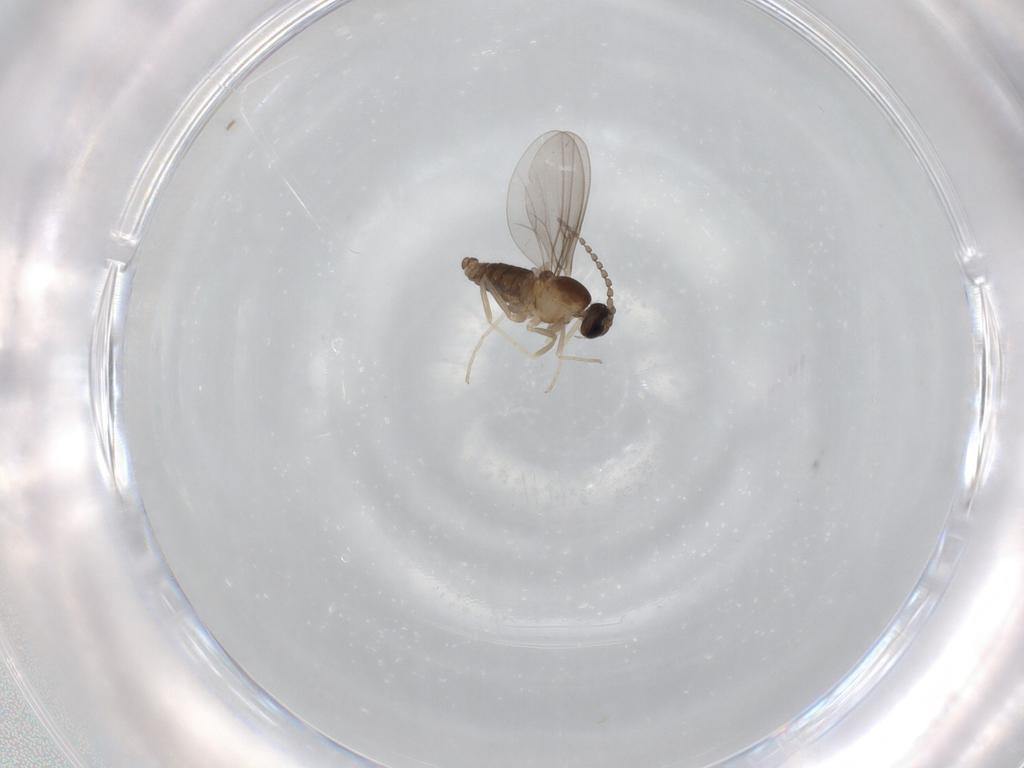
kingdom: Animalia
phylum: Arthropoda
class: Insecta
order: Diptera
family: Cecidomyiidae
